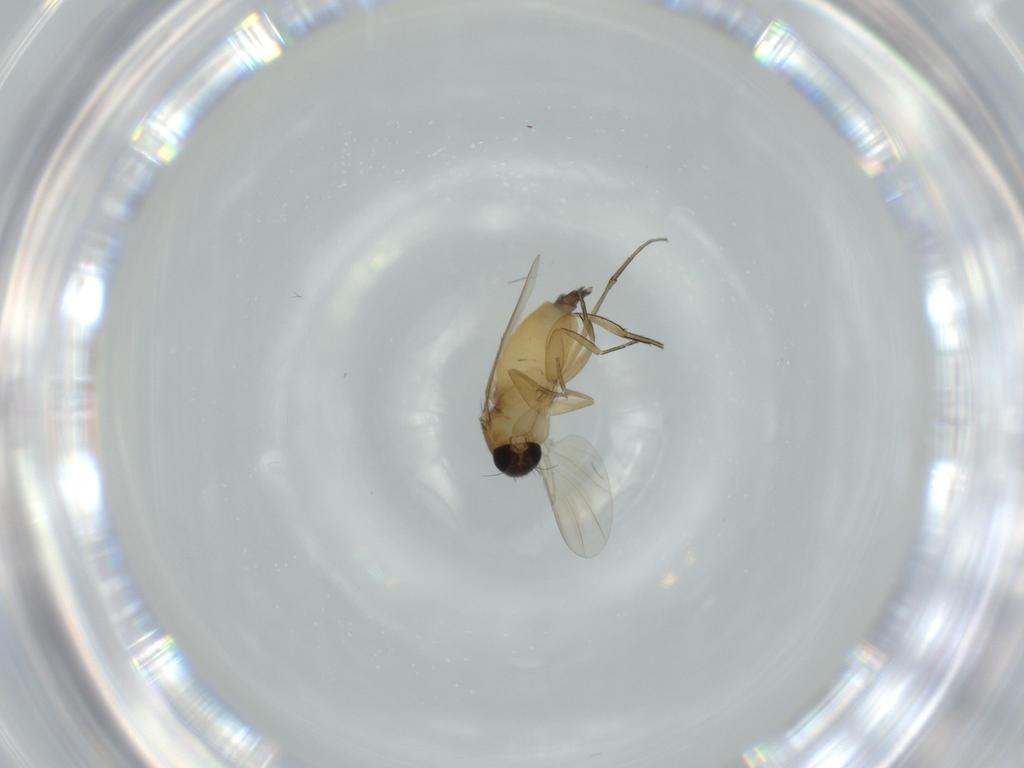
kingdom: Animalia
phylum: Arthropoda
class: Insecta
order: Diptera
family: Phoridae
